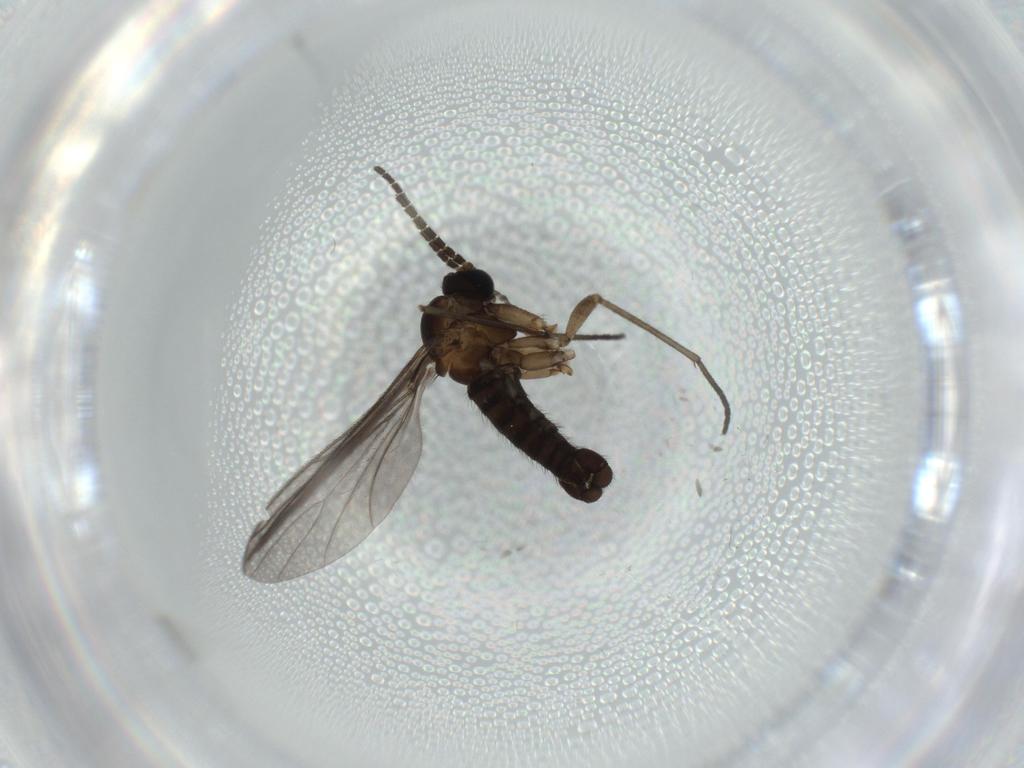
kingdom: Animalia
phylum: Arthropoda
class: Insecta
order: Diptera
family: Sciaridae
